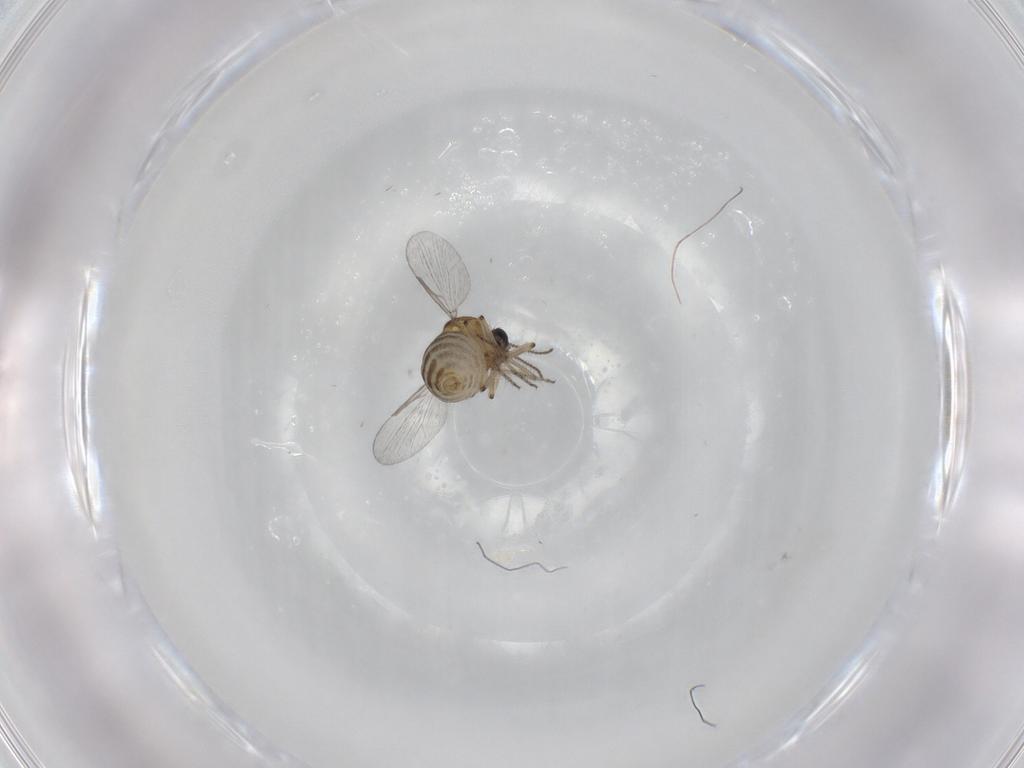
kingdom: Animalia
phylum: Arthropoda
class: Insecta
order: Diptera
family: Ceratopogonidae
